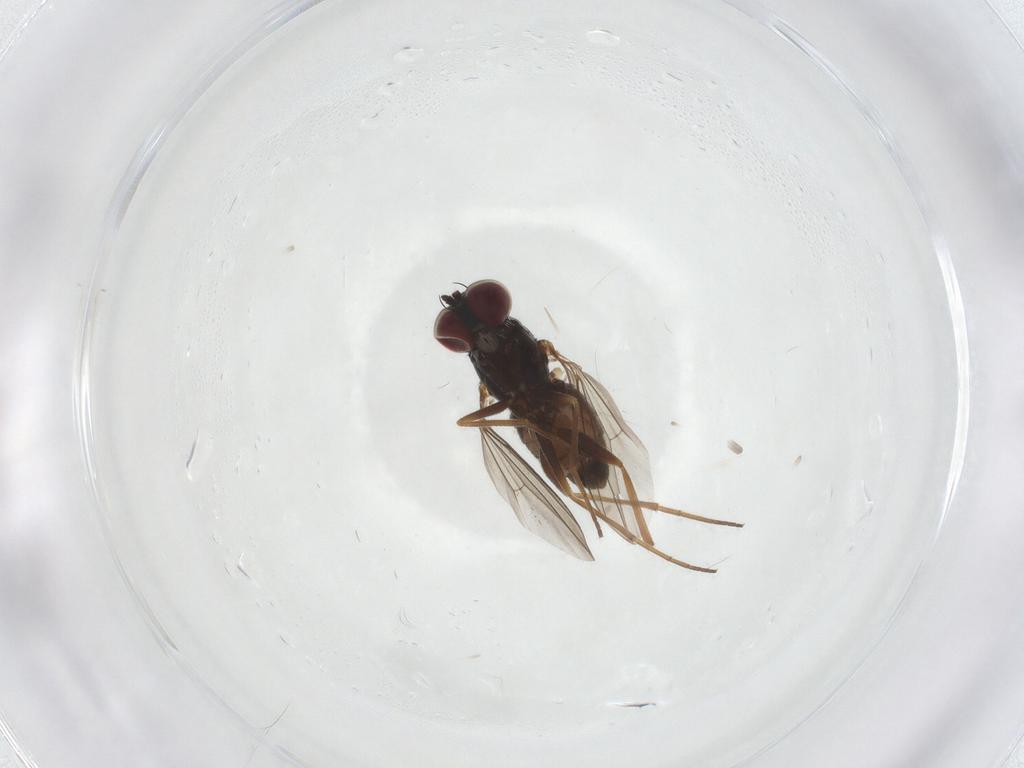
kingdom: Animalia
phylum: Arthropoda
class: Insecta
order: Diptera
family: Dolichopodidae
